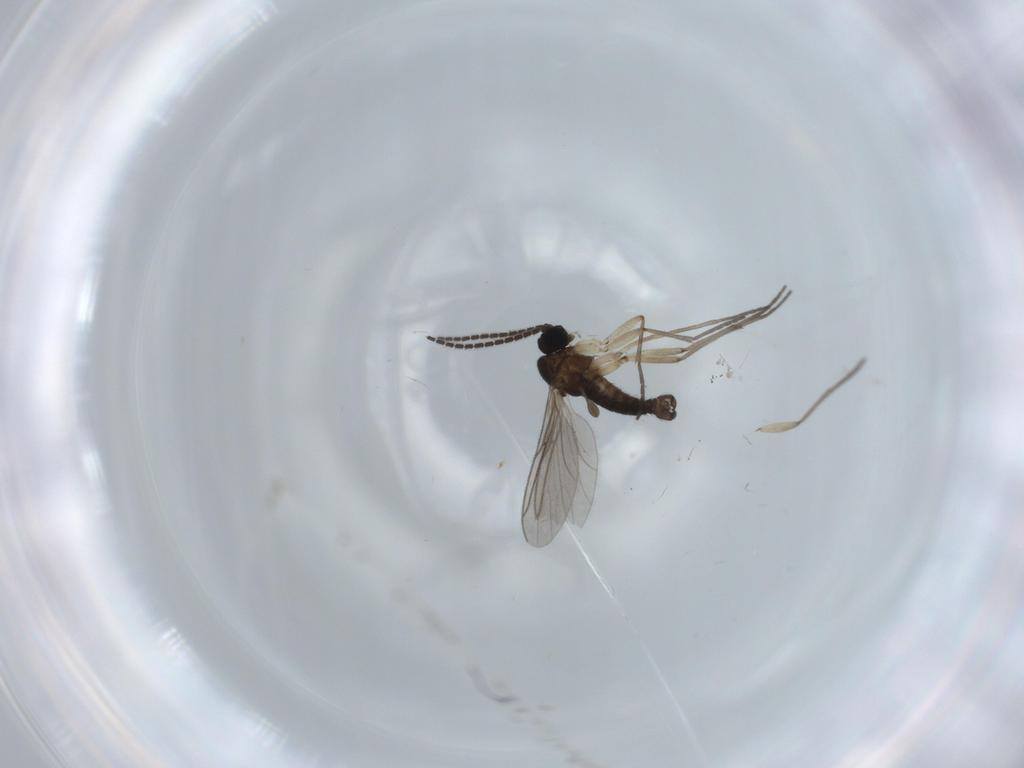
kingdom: Animalia
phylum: Arthropoda
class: Insecta
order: Diptera
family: Sciaridae
